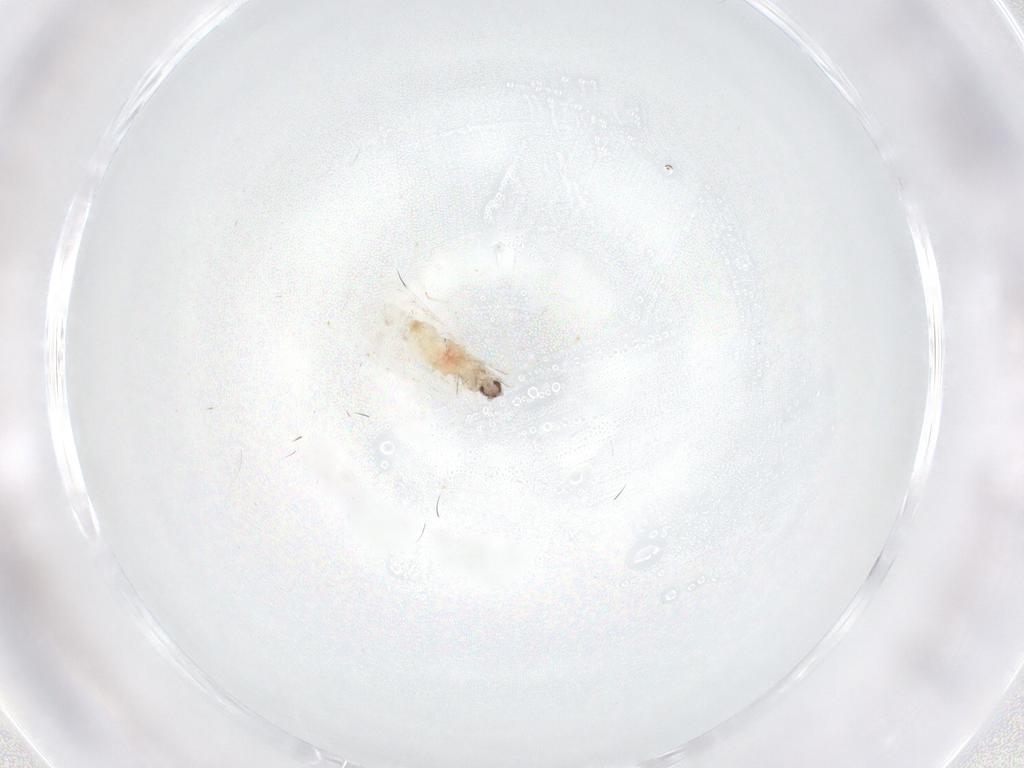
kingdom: Animalia
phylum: Arthropoda
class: Insecta
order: Diptera
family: Cecidomyiidae
